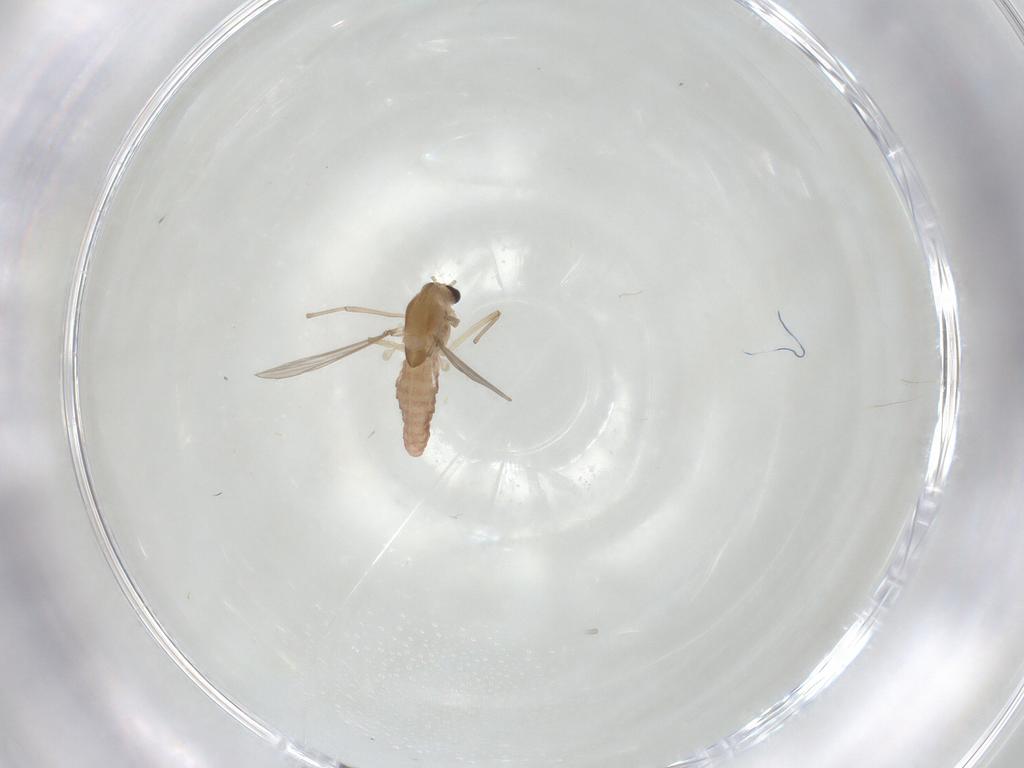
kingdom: Animalia
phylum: Arthropoda
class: Insecta
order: Diptera
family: Chironomidae
